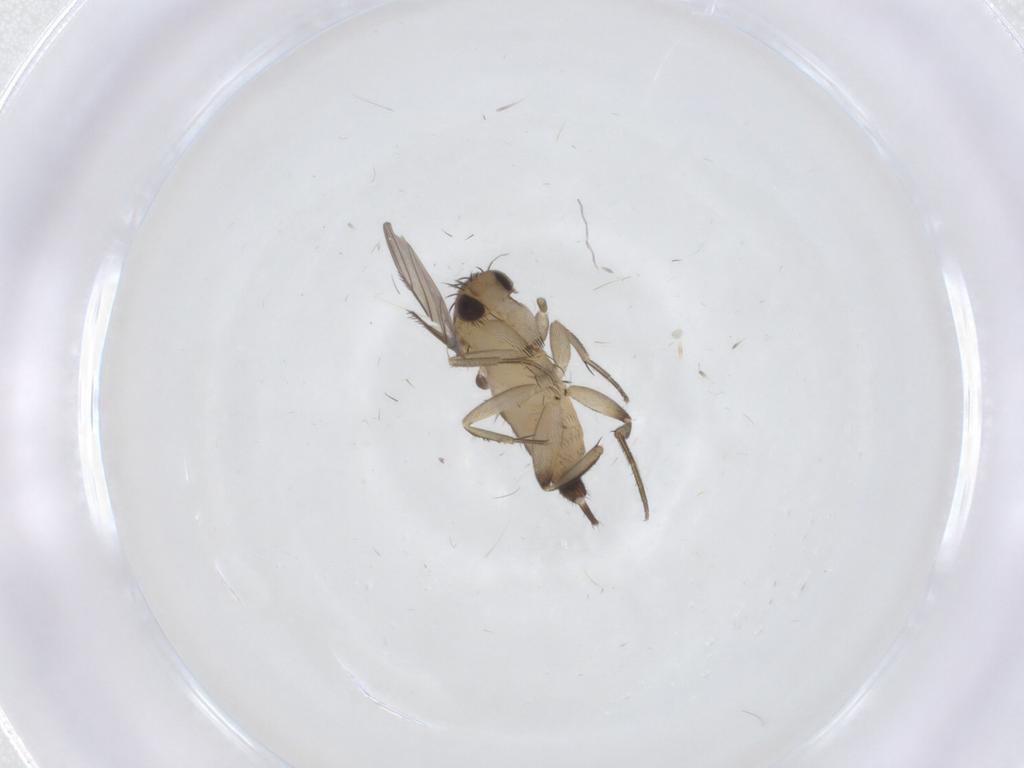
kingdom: Animalia
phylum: Arthropoda
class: Insecta
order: Diptera
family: Phoridae
